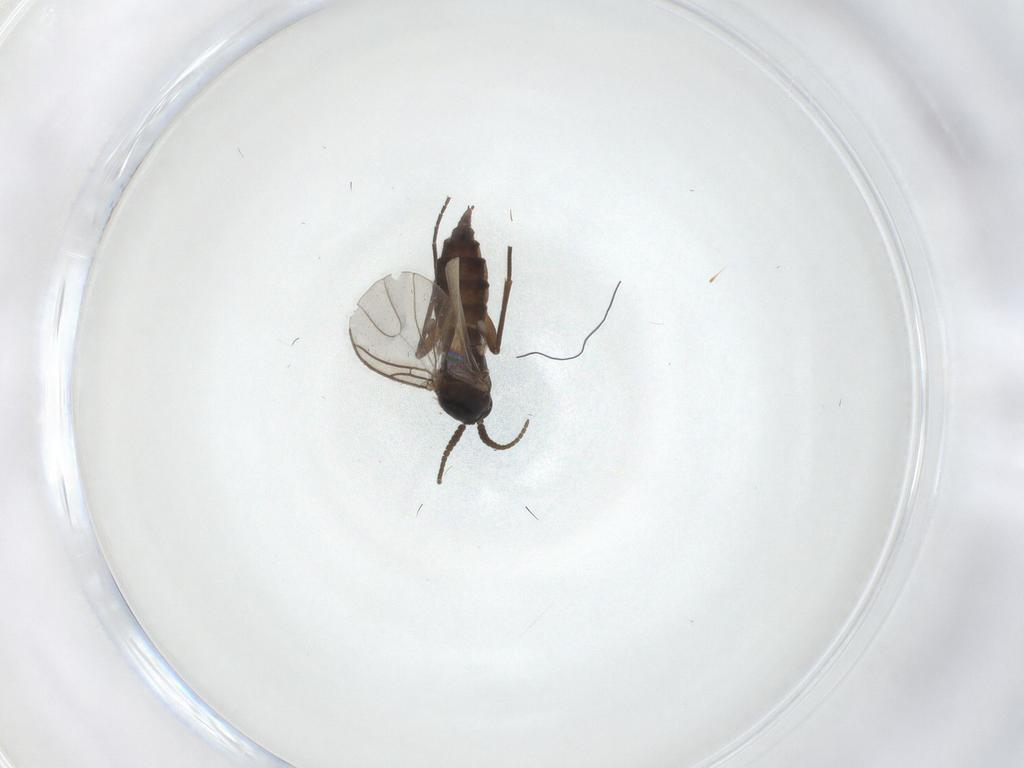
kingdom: Animalia
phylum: Arthropoda
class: Insecta
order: Diptera
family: Sciaridae
